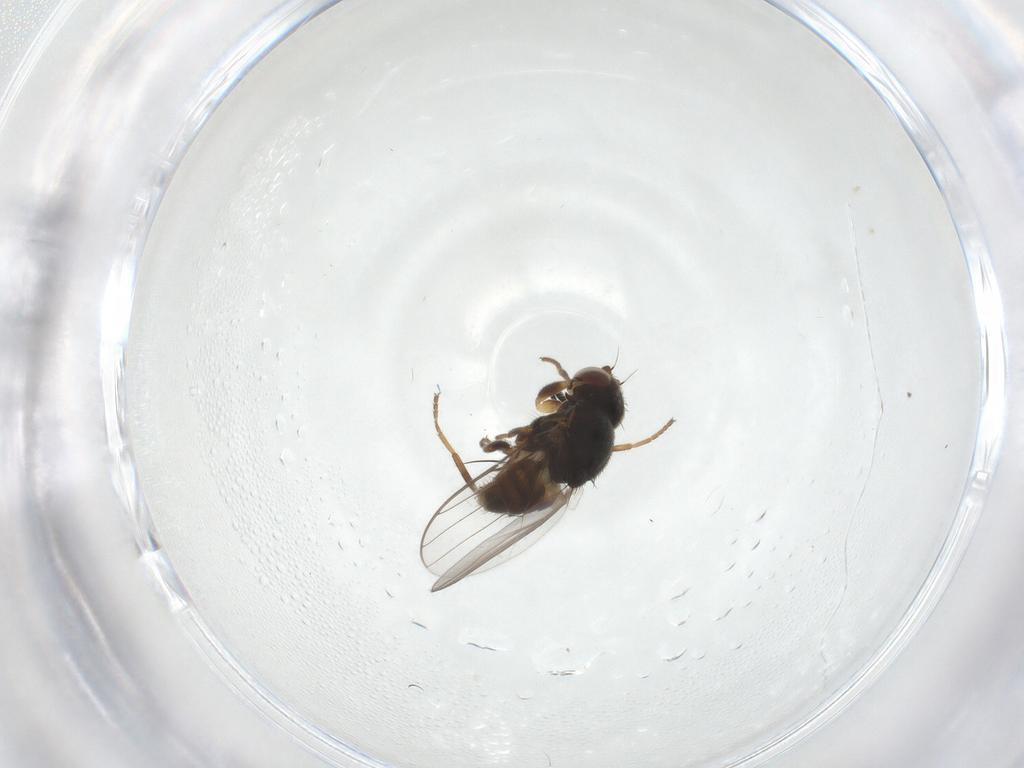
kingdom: Animalia
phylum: Arthropoda
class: Insecta
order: Diptera
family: Chloropidae
